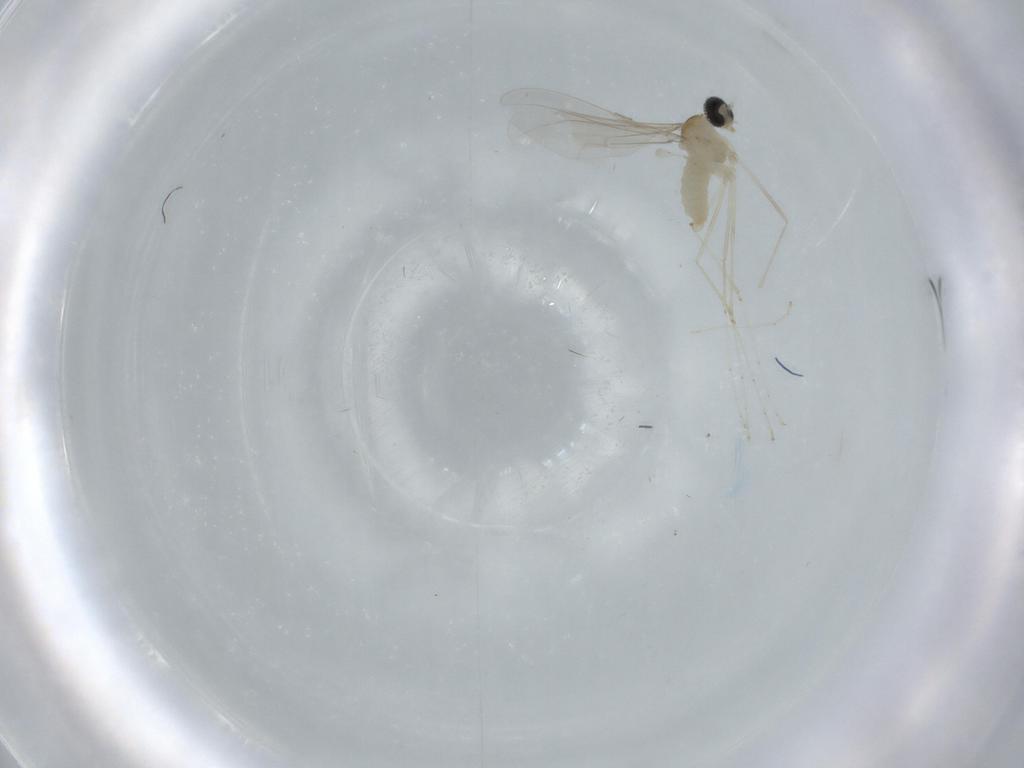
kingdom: Animalia
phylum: Arthropoda
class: Insecta
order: Diptera
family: Cecidomyiidae
